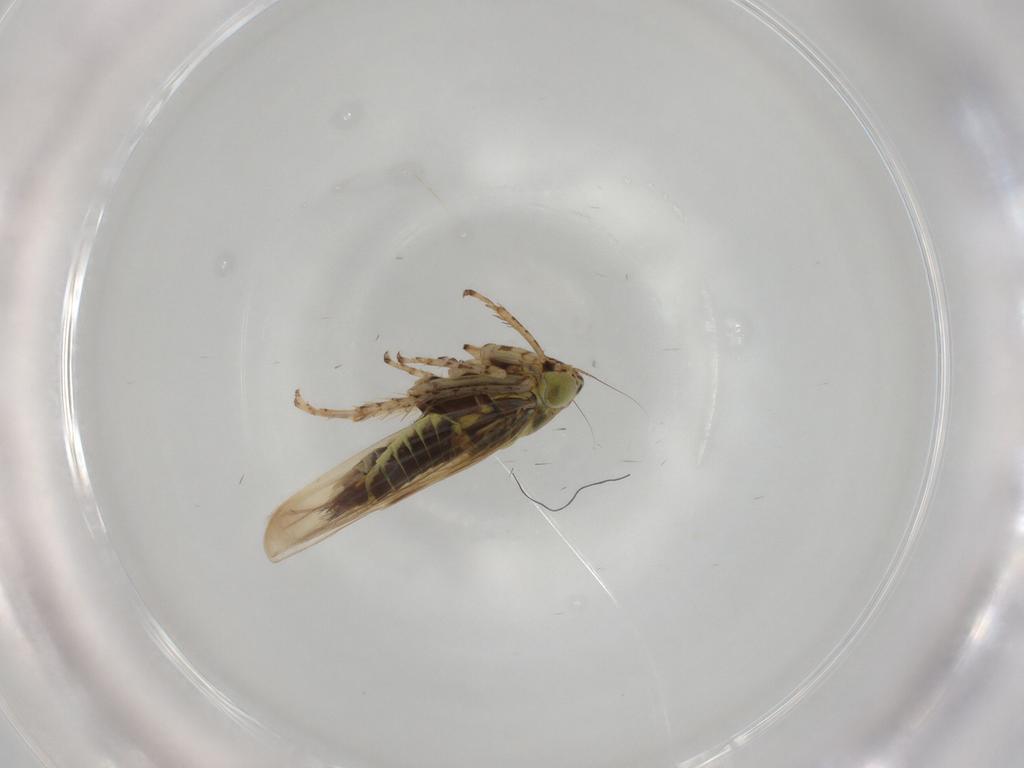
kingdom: Animalia
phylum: Arthropoda
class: Insecta
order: Hemiptera
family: Cicadellidae
